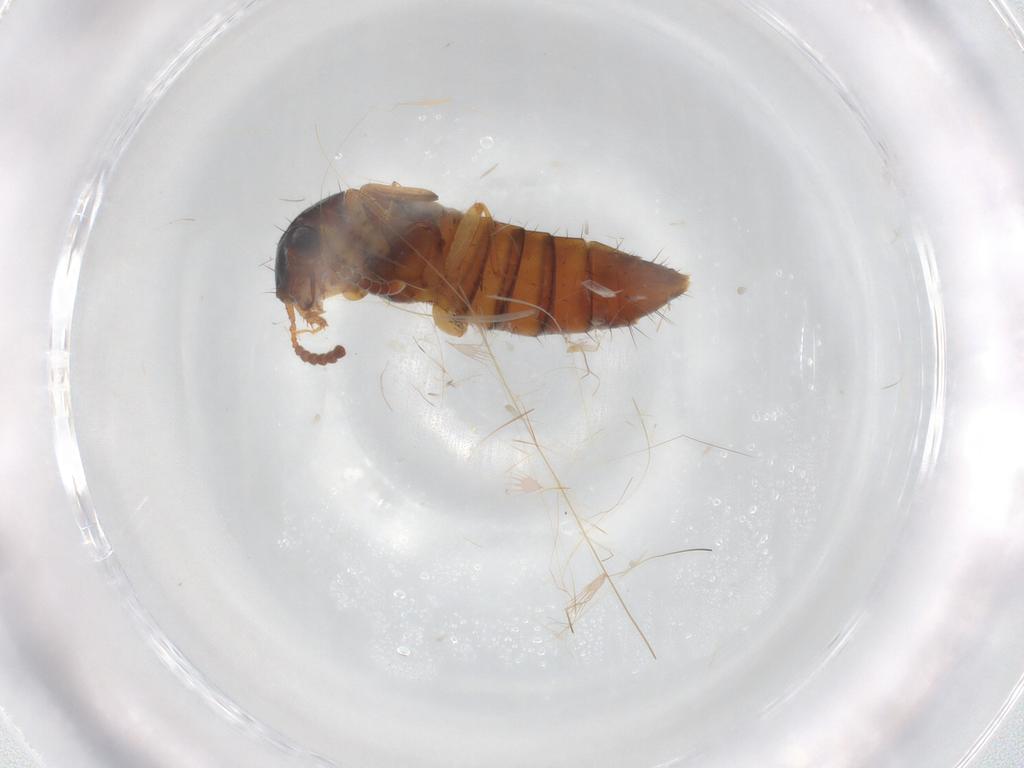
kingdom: Animalia
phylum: Arthropoda
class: Insecta
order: Coleoptera
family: Staphylinidae
